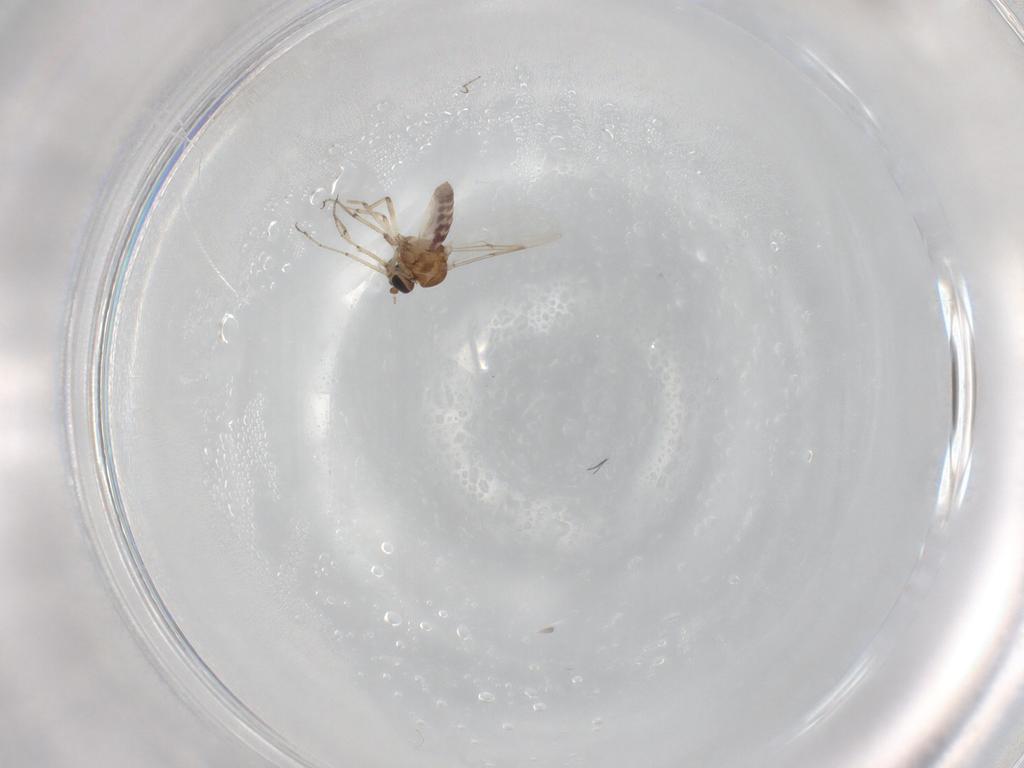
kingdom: Animalia
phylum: Arthropoda
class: Insecta
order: Diptera
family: Ceratopogonidae
